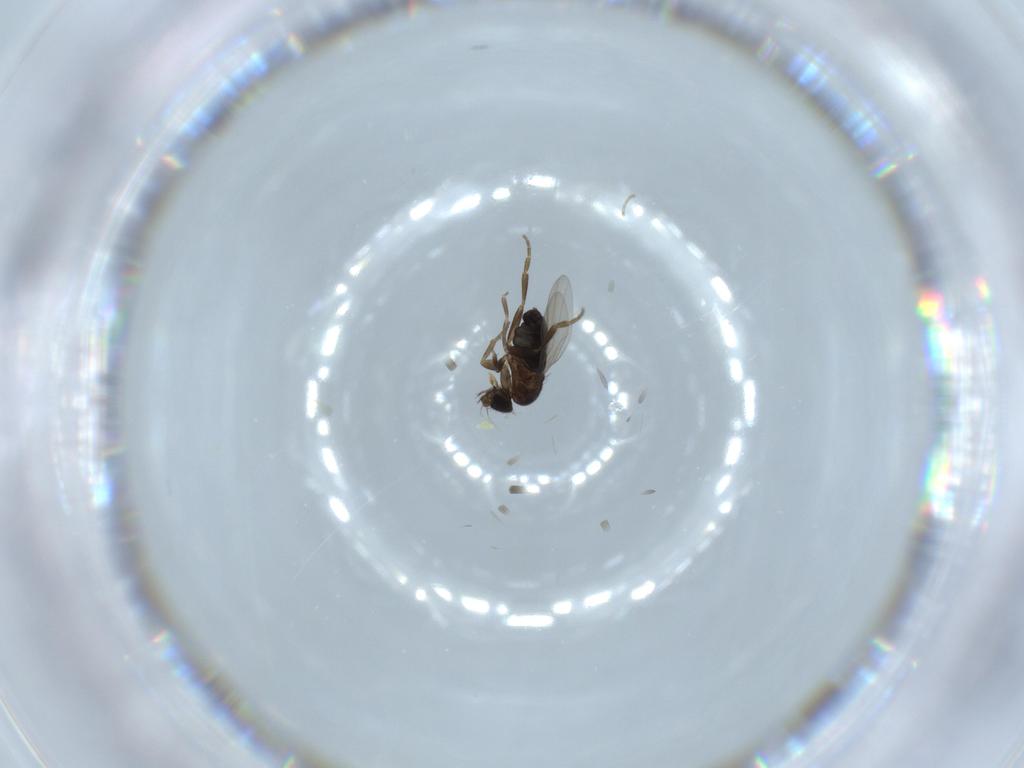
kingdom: Animalia
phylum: Arthropoda
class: Insecta
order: Diptera
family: Phoridae
